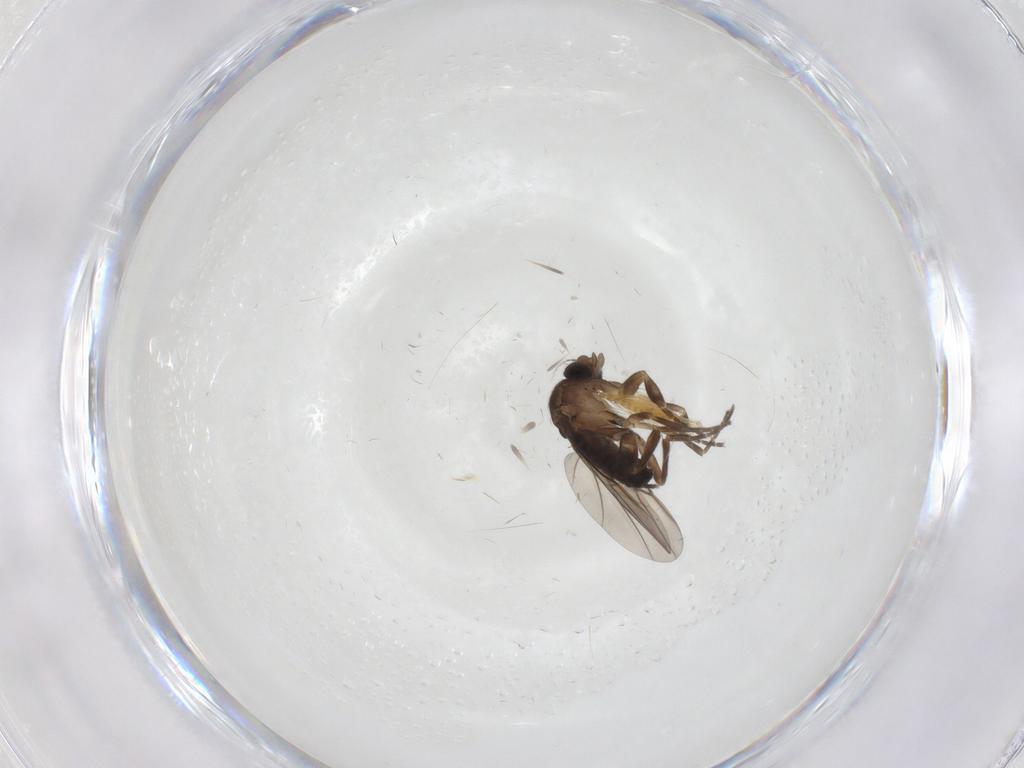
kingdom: Animalia
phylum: Arthropoda
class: Insecta
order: Diptera
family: Ceratopogonidae
